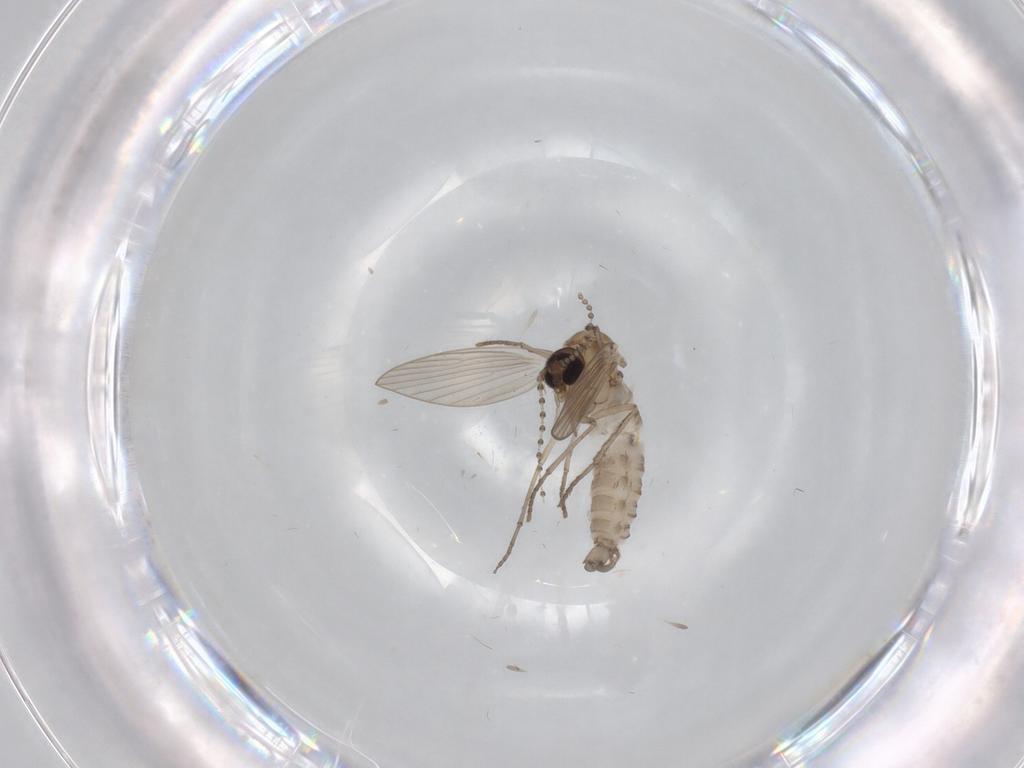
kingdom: Animalia
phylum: Arthropoda
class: Insecta
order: Diptera
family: Psychodidae
